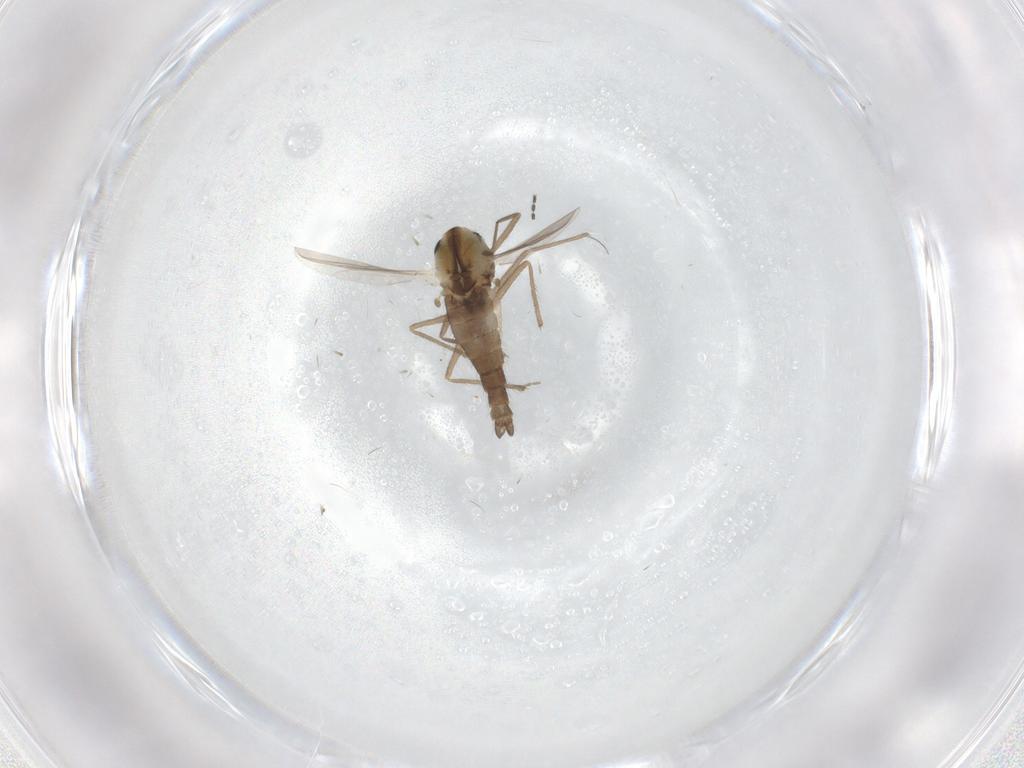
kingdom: Animalia
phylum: Arthropoda
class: Insecta
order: Diptera
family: Chironomidae
